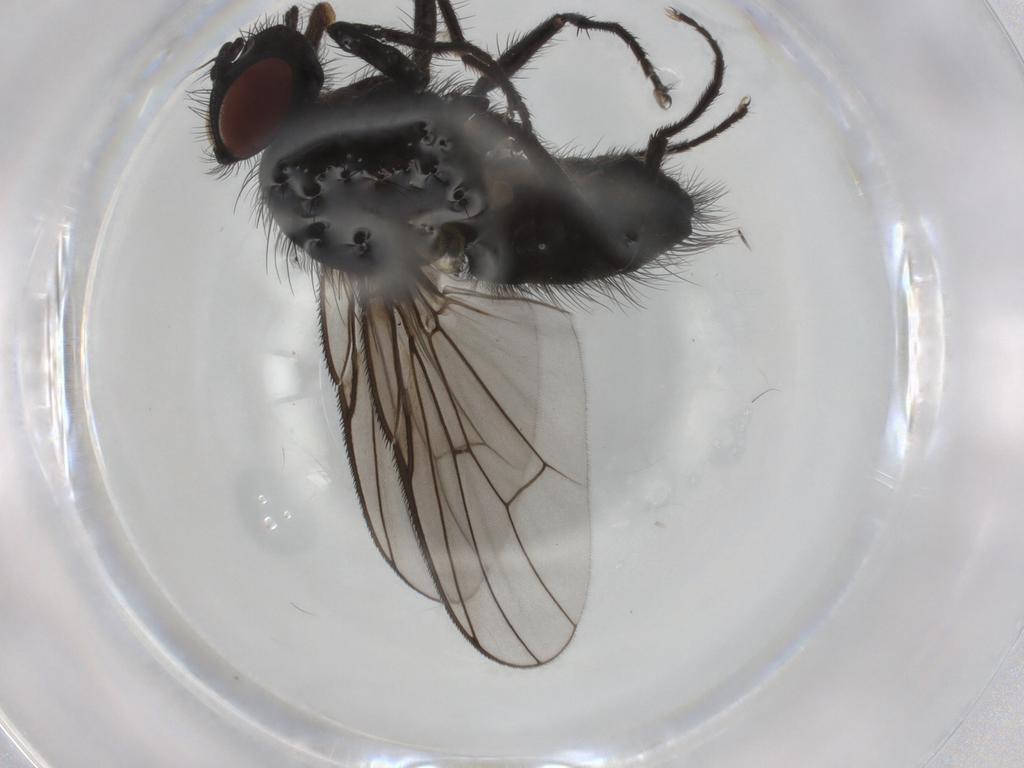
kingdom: Animalia
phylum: Arthropoda
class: Insecta
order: Diptera
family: Muscidae
